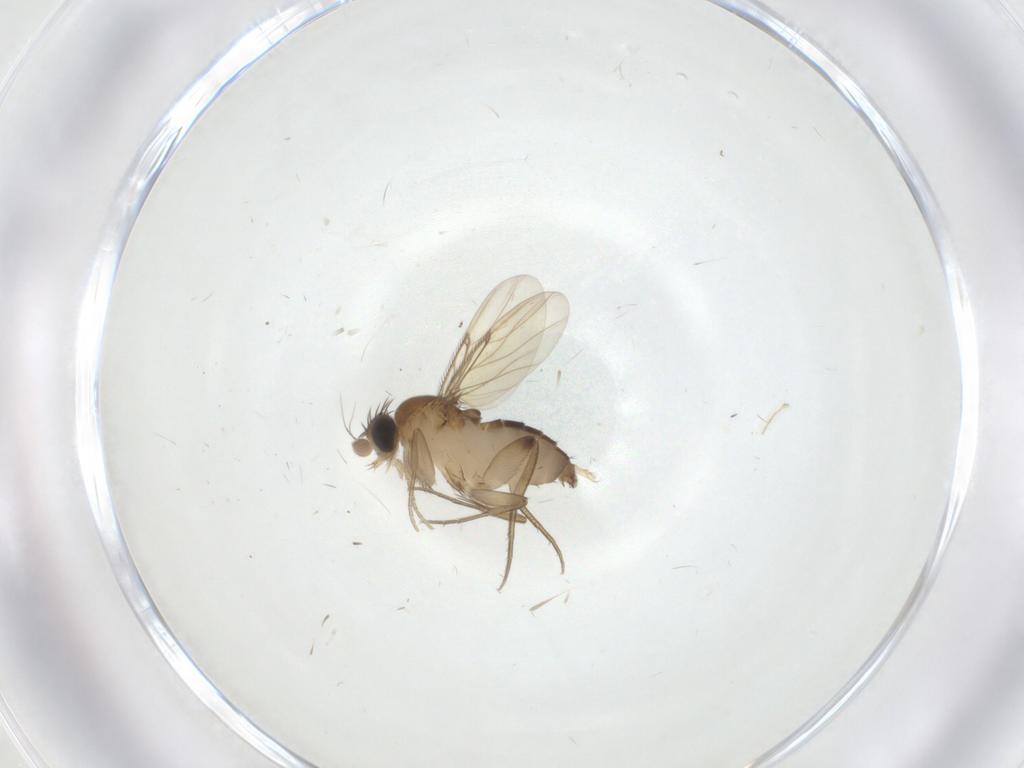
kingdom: Animalia
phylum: Arthropoda
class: Insecta
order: Diptera
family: Phoridae
